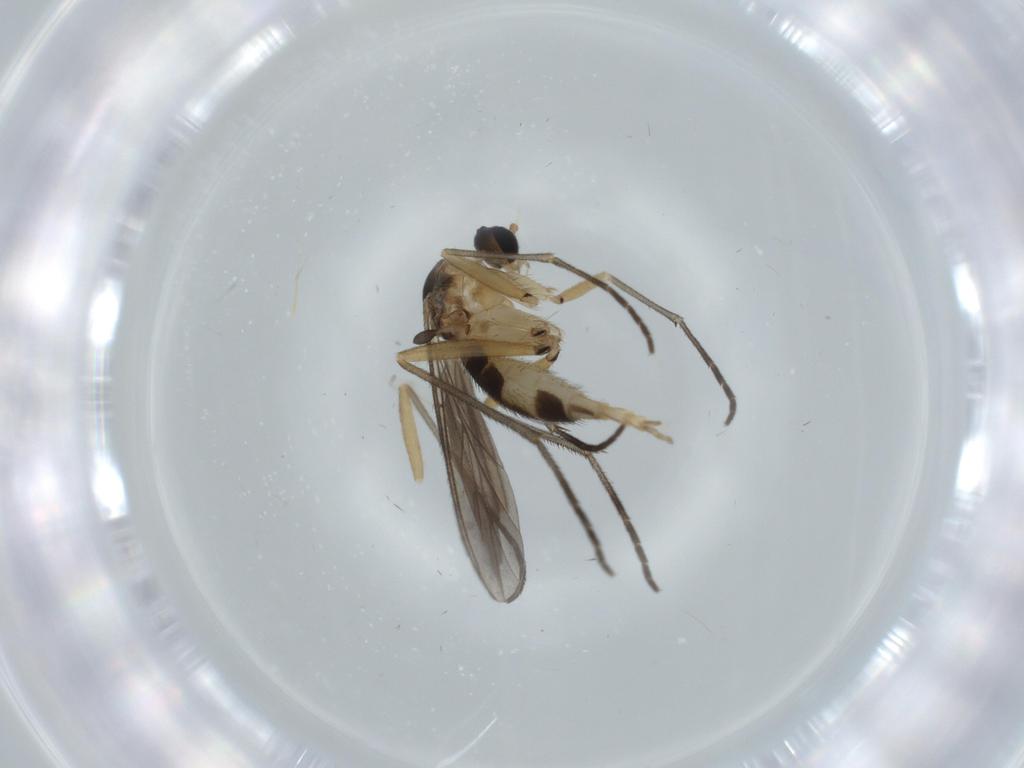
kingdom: Animalia
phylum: Arthropoda
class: Insecta
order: Diptera
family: Sciaridae
